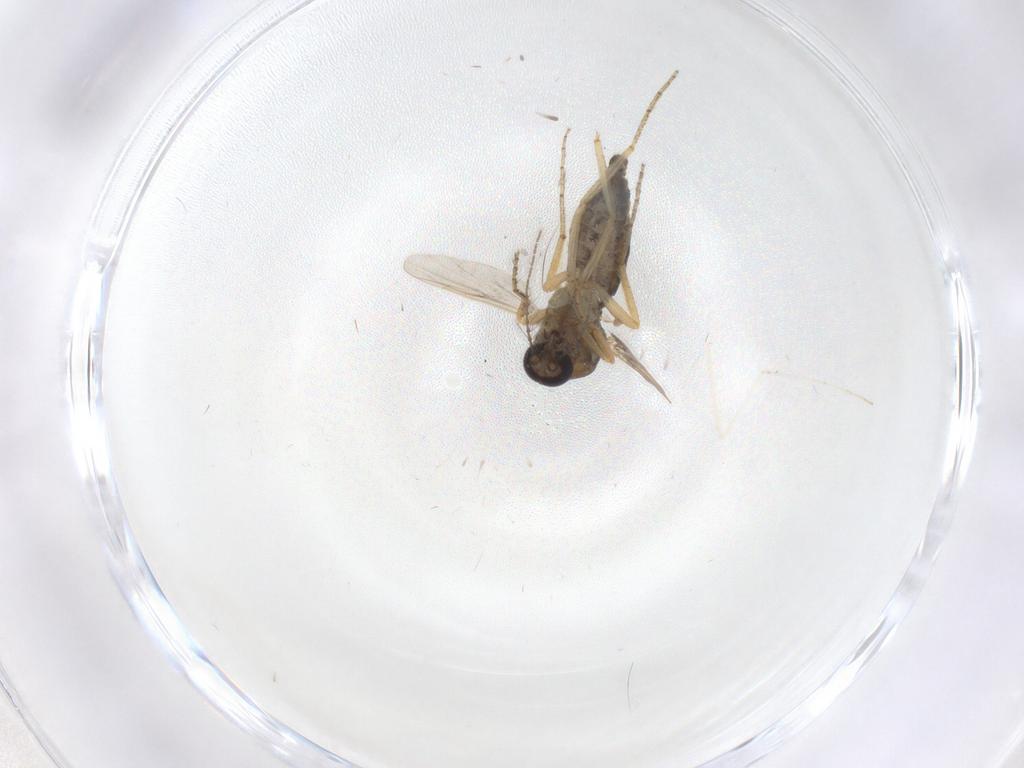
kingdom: Animalia
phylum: Arthropoda
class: Insecta
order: Diptera
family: Ceratopogonidae
